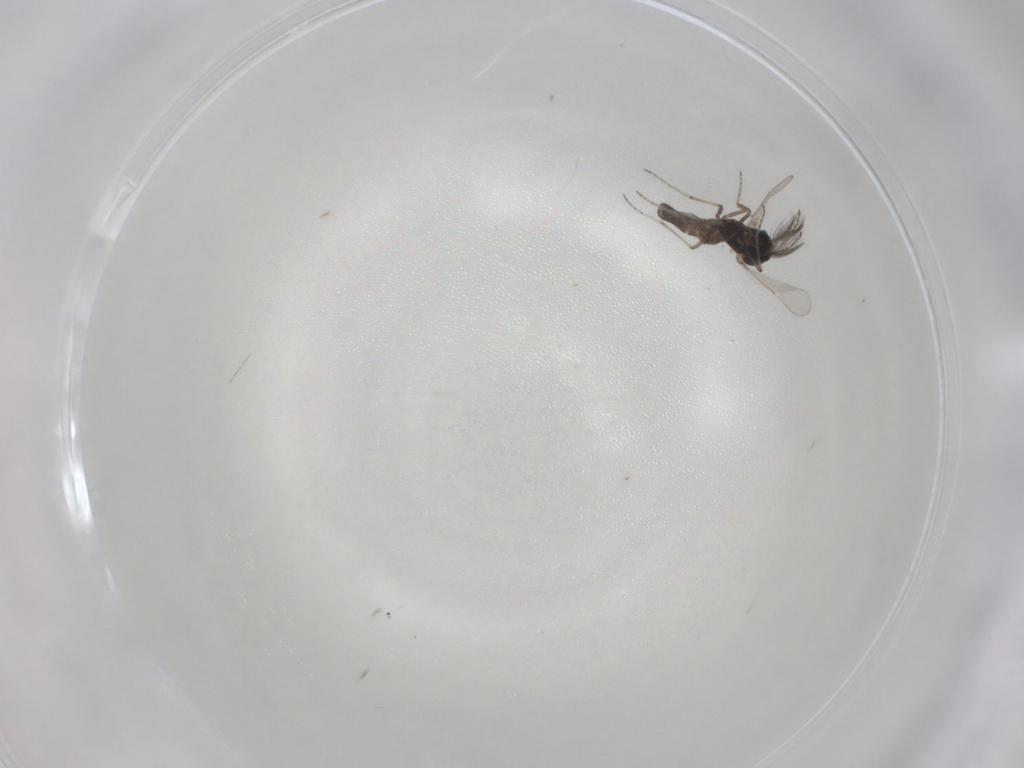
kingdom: Animalia
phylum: Arthropoda
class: Insecta
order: Diptera
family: Ceratopogonidae
